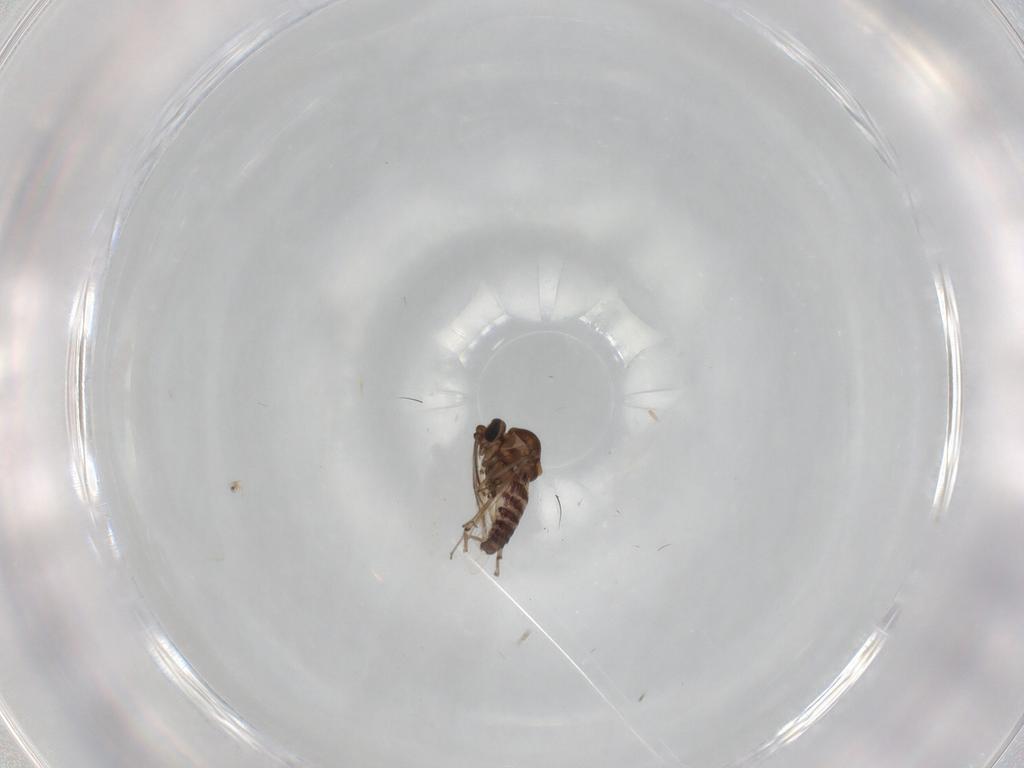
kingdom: Animalia
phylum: Arthropoda
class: Insecta
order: Diptera
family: Ceratopogonidae
